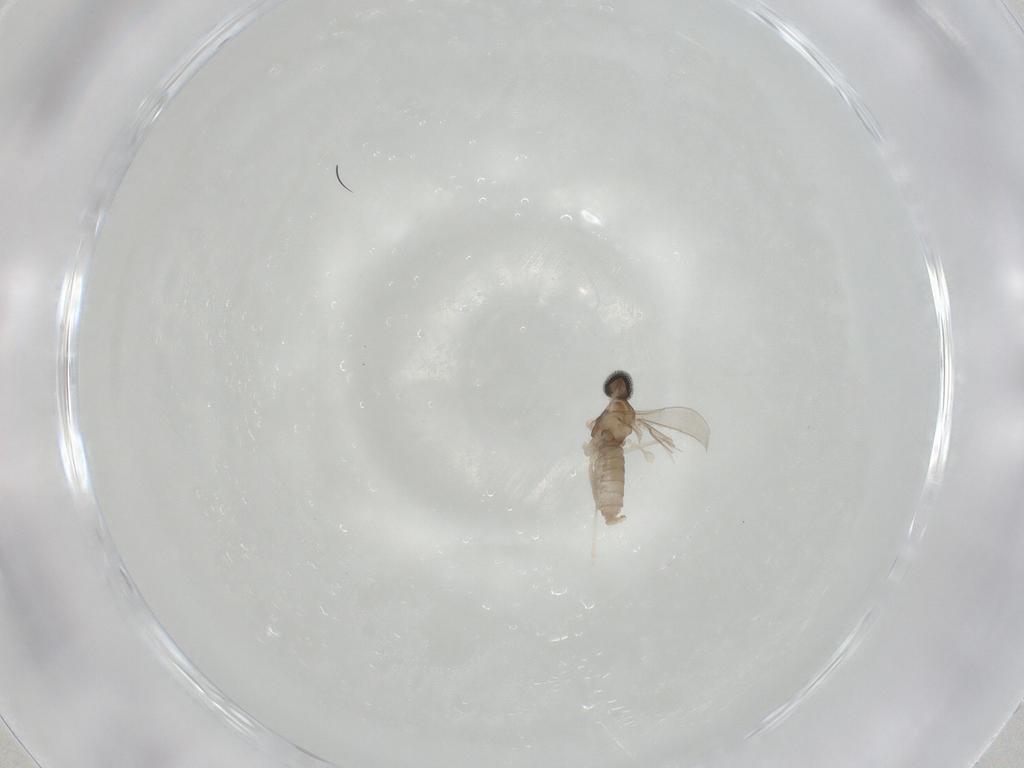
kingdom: Animalia
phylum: Arthropoda
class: Insecta
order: Diptera
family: Cecidomyiidae
